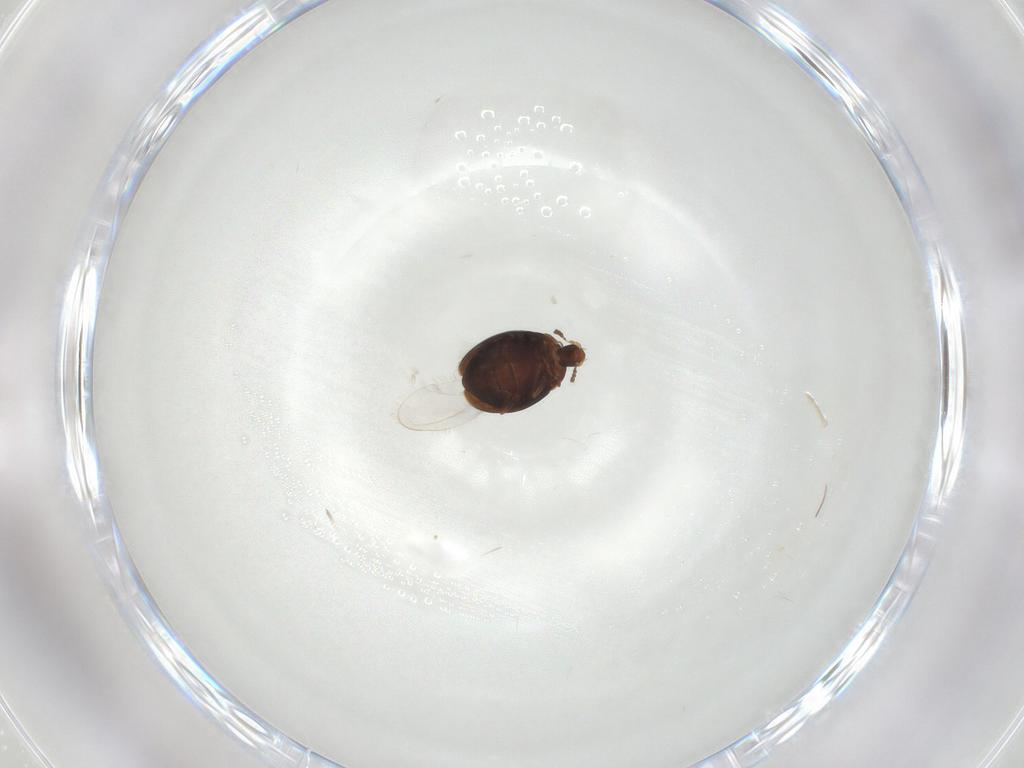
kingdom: Animalia
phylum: Arthropoda
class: Insecta
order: Coleoptera
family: Corylophidae
